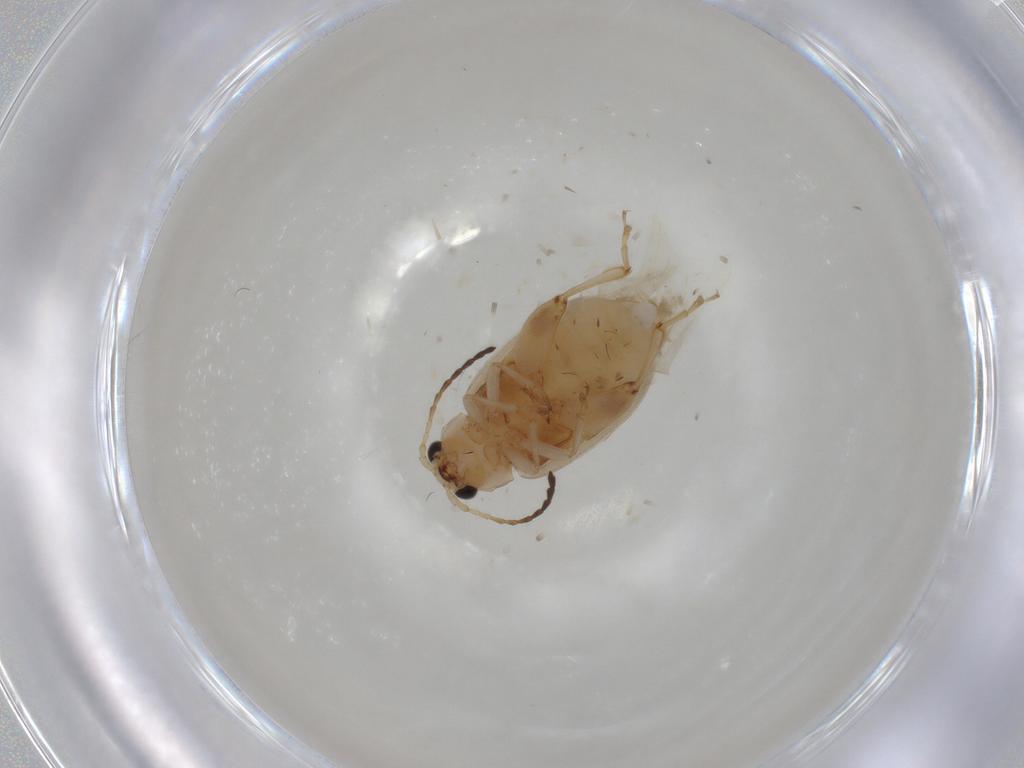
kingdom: Animalia
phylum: Arthropoda
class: Insecta
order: Coleoptera
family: Chrysomelidae
